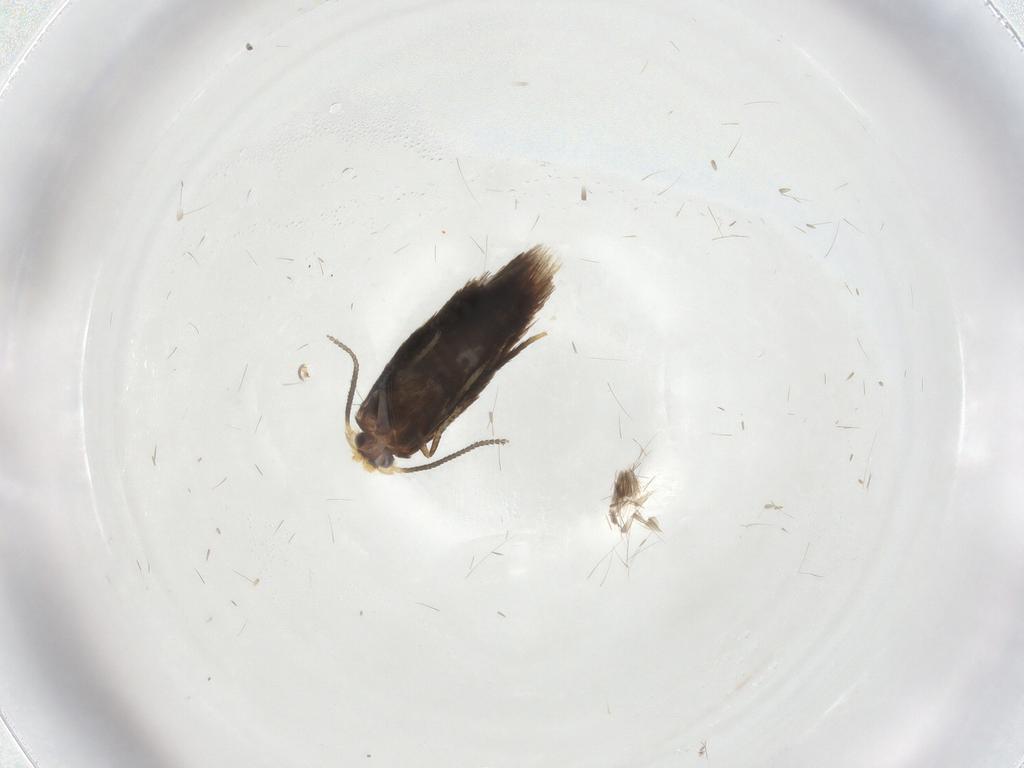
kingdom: Animalia
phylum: Arthropoda
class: Insecta
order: Lepidoptera
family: Nepticulidae
